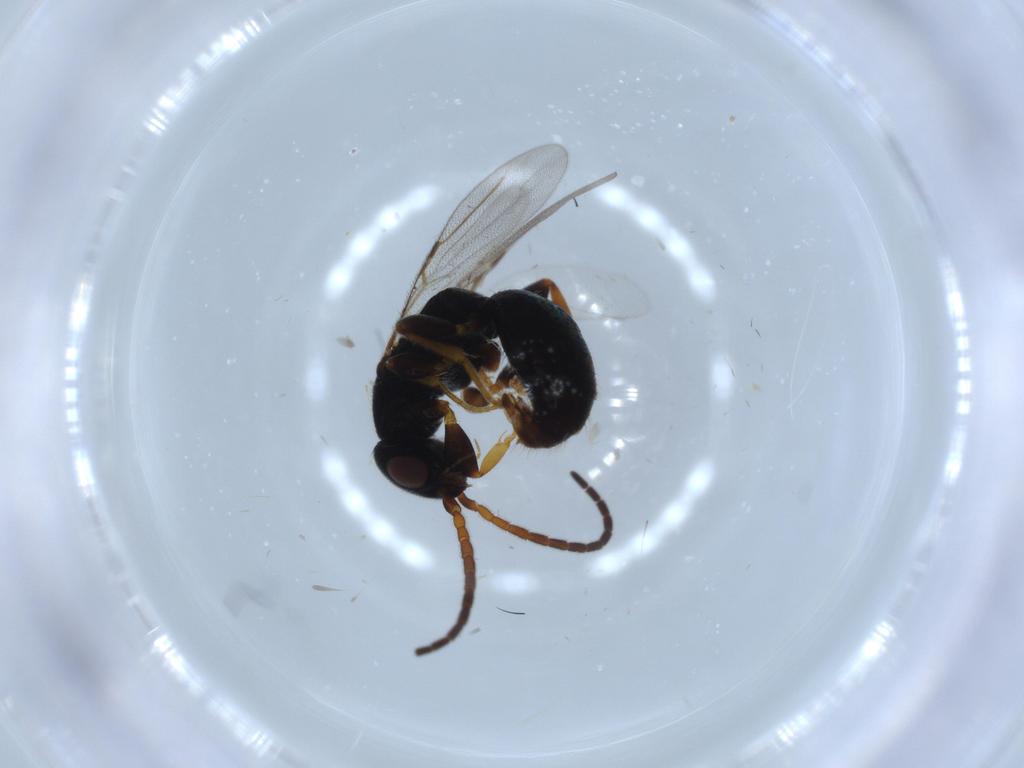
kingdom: Animalia
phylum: Arthropoda
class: Insecta
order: Hymenoptera
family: Bethylidae
